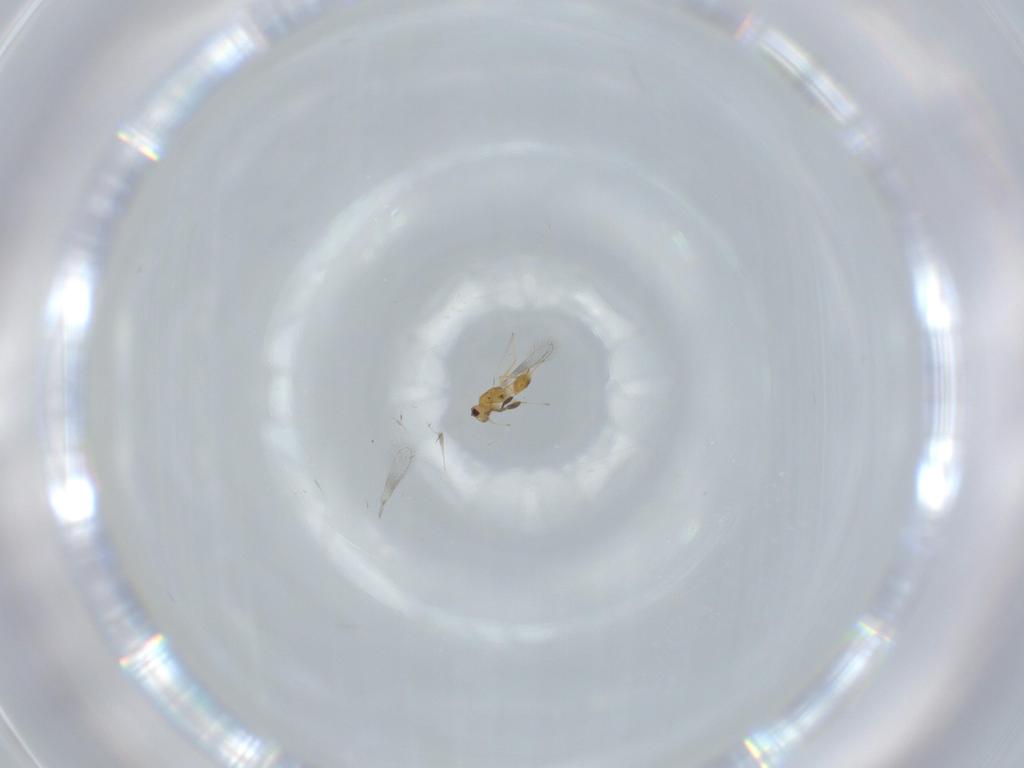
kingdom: Animalia
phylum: Arthropoda
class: Insecta
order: Hymenoptera
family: Mymaridae
